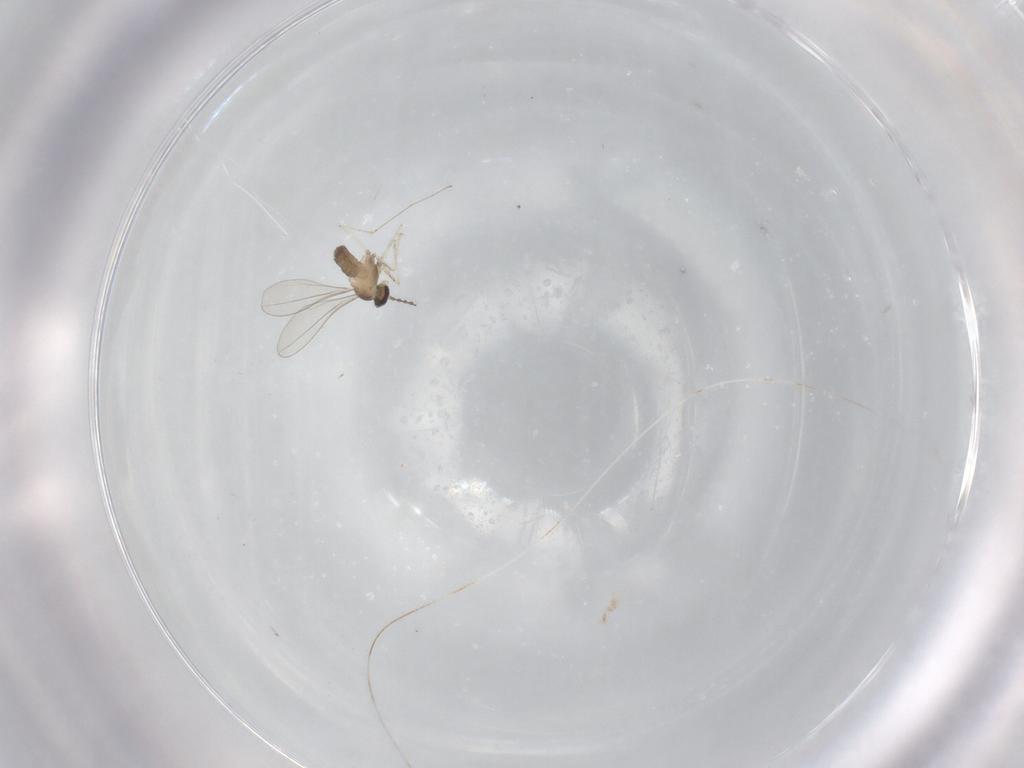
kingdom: Animalia
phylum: Arthropoda
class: Insecta
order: Diptera
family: Cecidomyiidae
